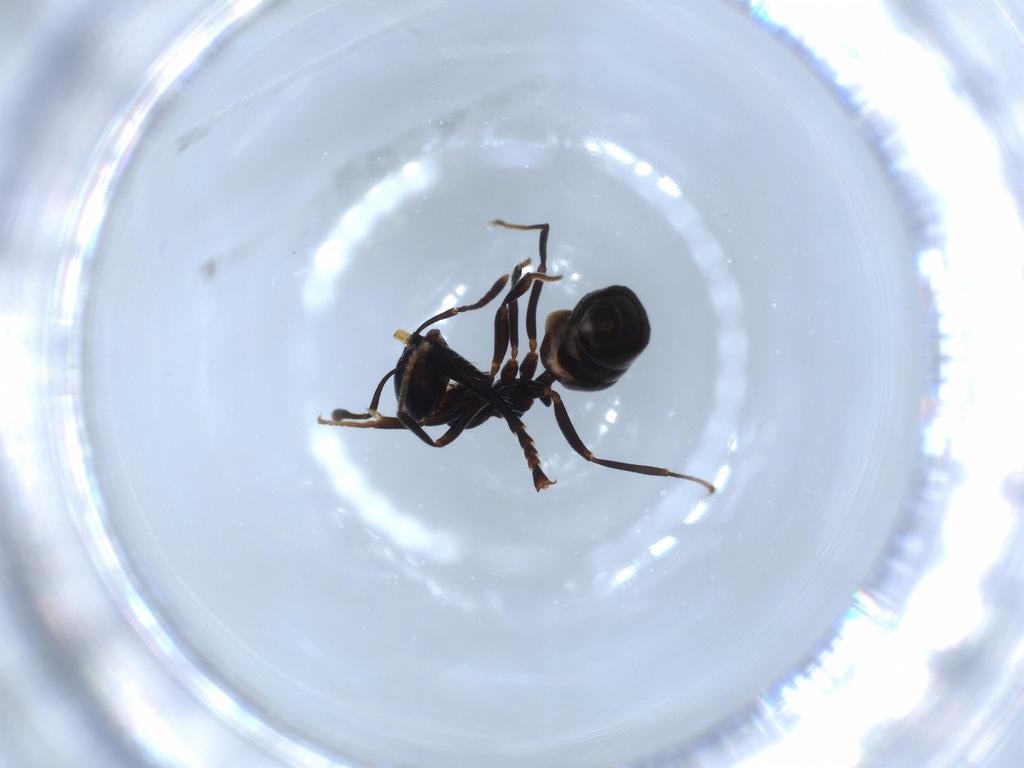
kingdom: Animalia
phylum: Arthropoda
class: Insecta
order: Hymenoptera
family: Formicidae
